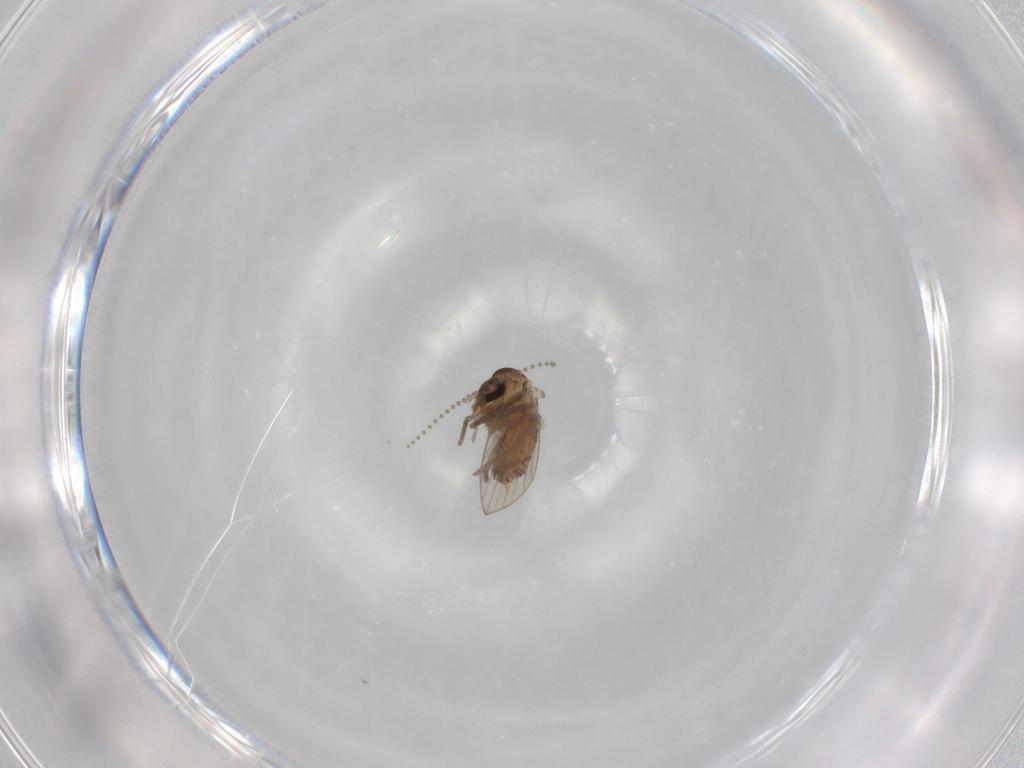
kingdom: Animalia
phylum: Arthropoda
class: Insecta
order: Diptera
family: Psychodidae
